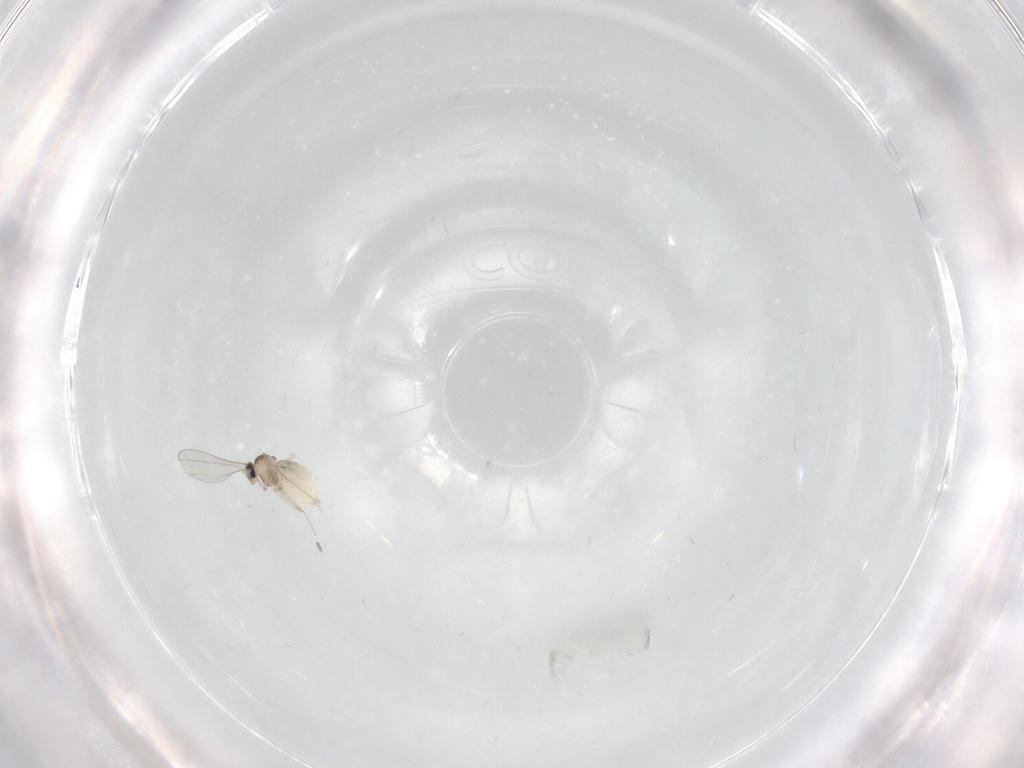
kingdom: Animalia
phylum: Arthropoda
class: Insecta
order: Diptera
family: Cecidomyiidae
